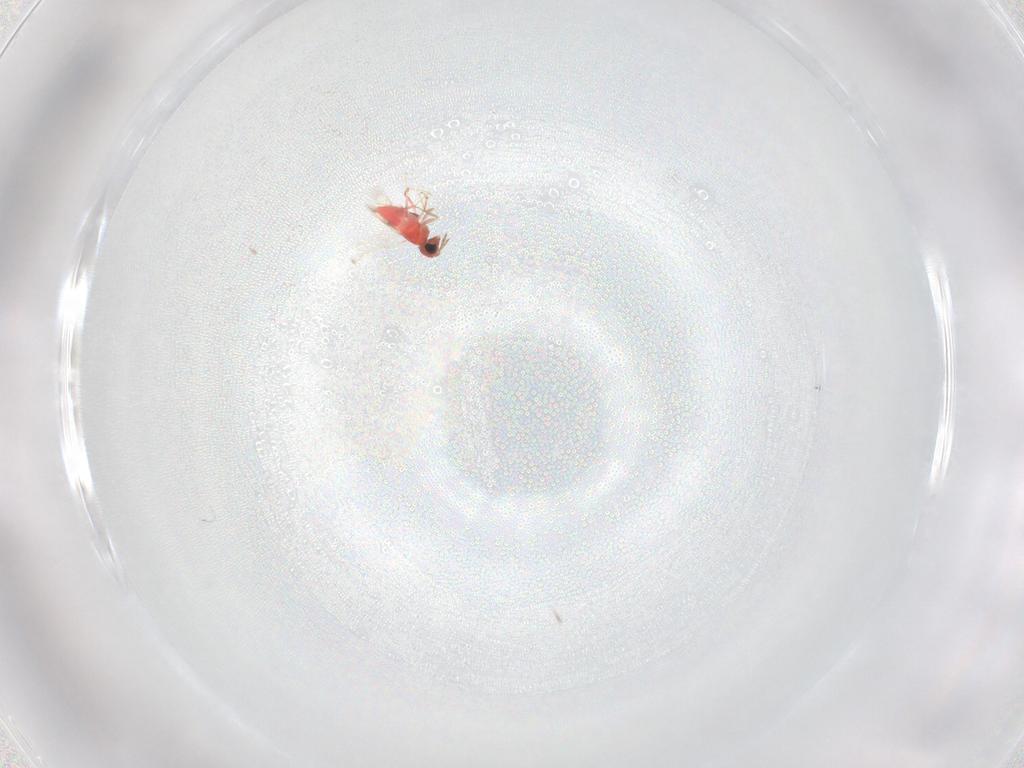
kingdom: Animalia
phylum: Arthropoda
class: Insecta
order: Hymenoptera
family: Trichogrammatidae
